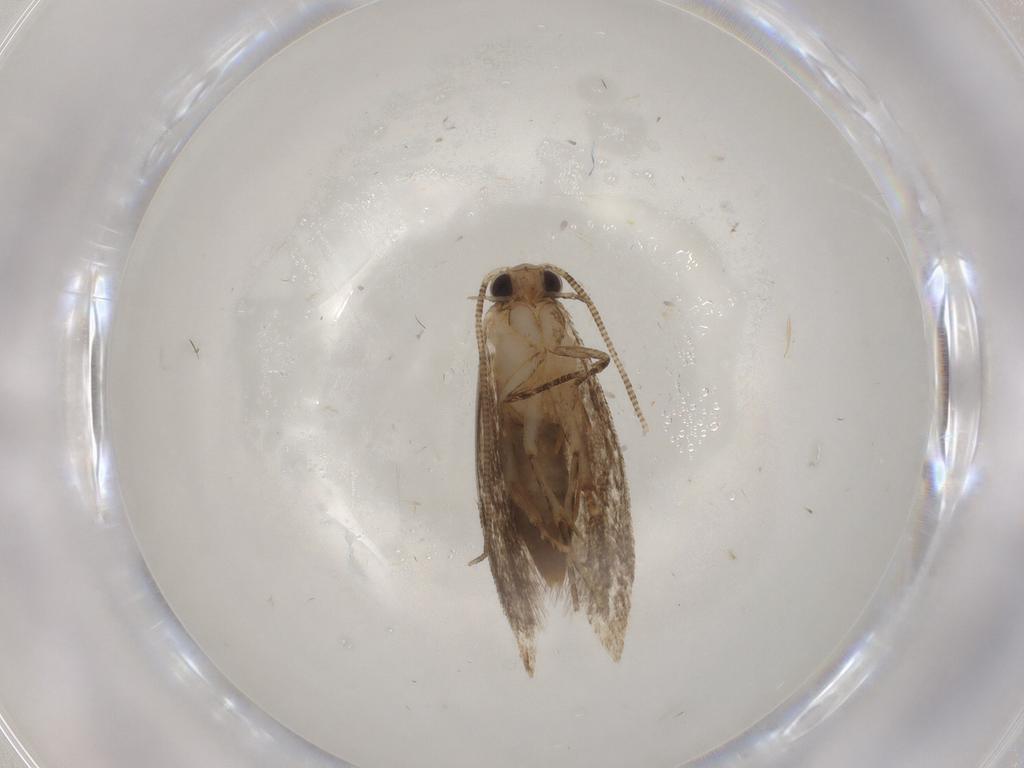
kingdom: Animalia
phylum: Arthropoda
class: Insecta
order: Lepidoptera
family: Tineidae
